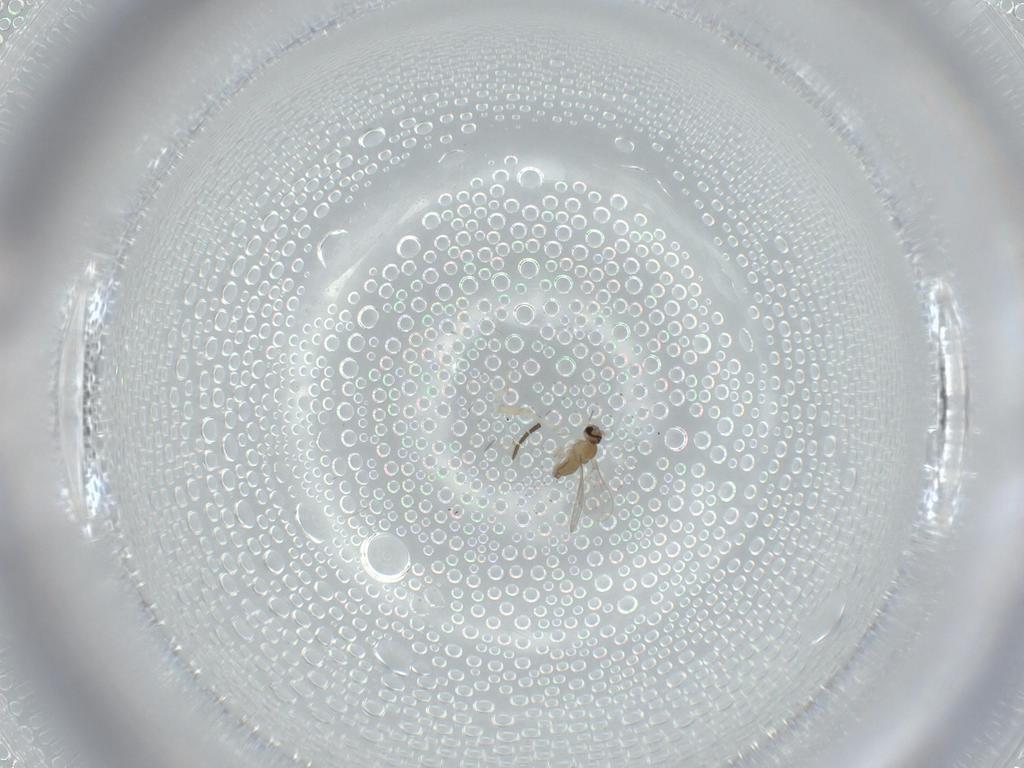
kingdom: Animalia
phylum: Arthropoda
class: Insecta
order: Diptera
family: Cecidomyiidae
